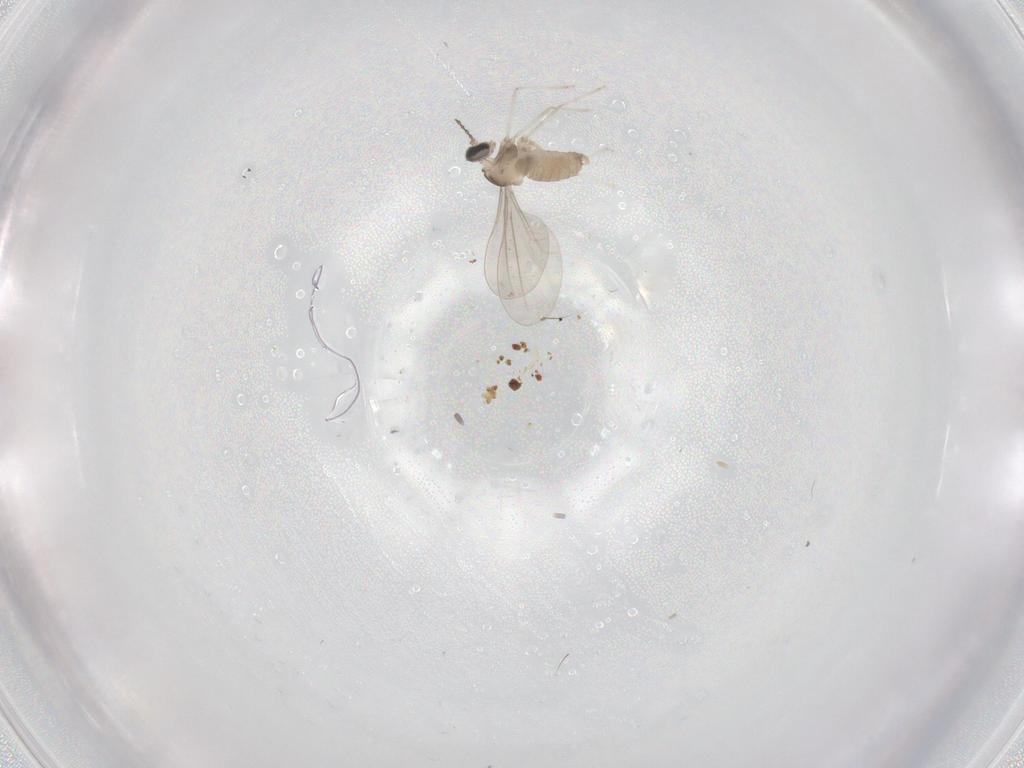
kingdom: Animalia
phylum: Arthropoda
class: Insecta
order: Diptera
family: Cecidomyiidae
